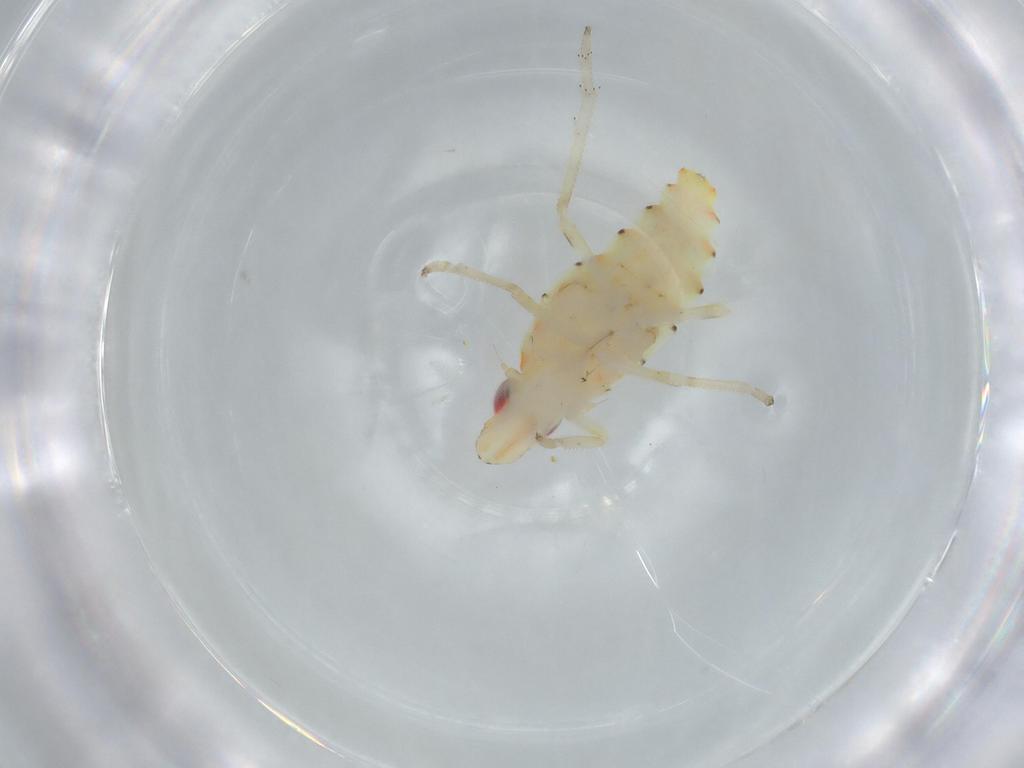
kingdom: Animalia
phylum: Arthropoda
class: Insecta
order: Hemiptera
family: Tropiduchidae
